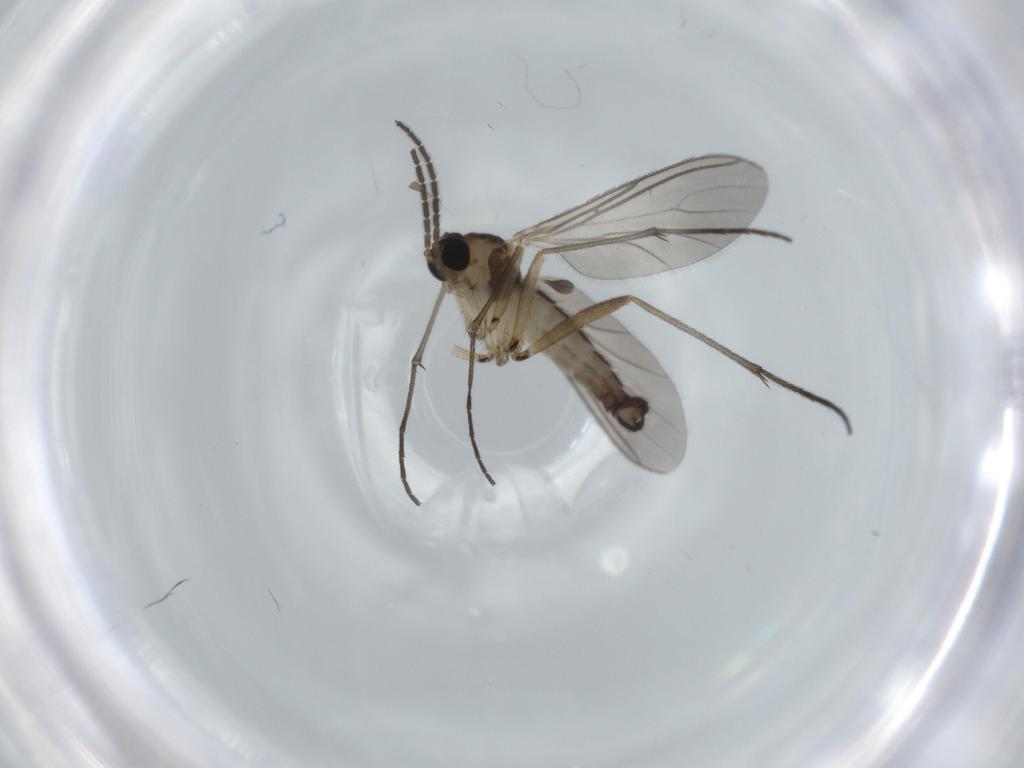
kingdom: Animalia
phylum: Arthropoda
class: Insecta
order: Diptera
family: Sciaridae
